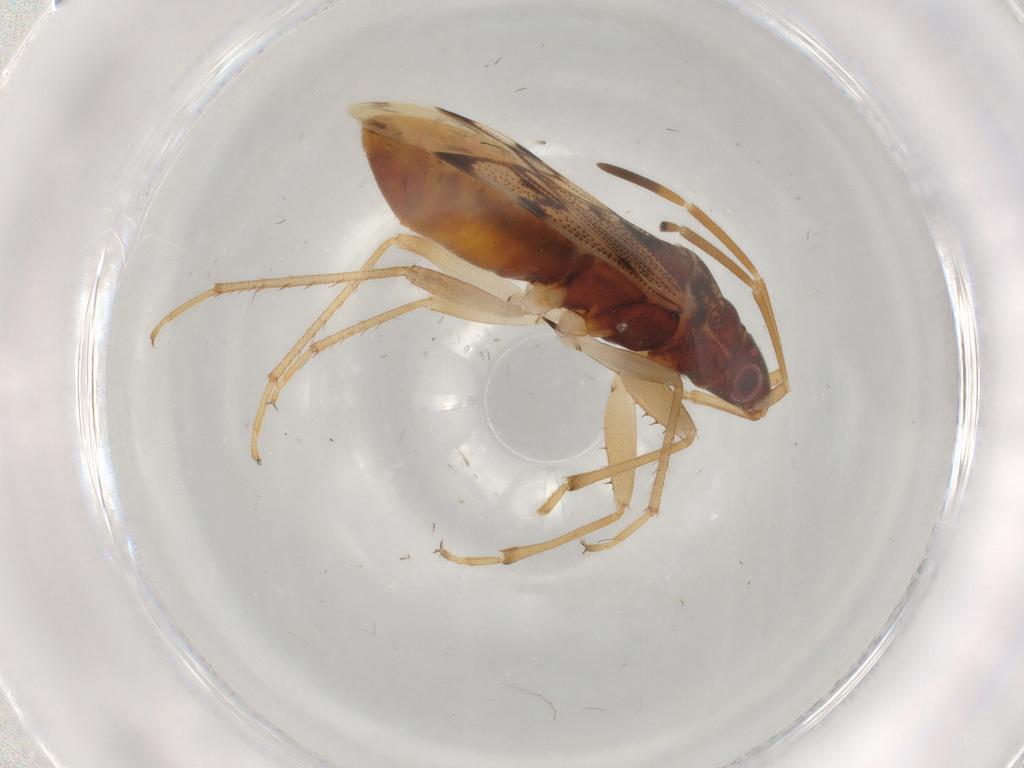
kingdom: Animalia
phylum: Arthropoda
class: Insecta
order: Hemiptera
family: Rhyparochromidae
